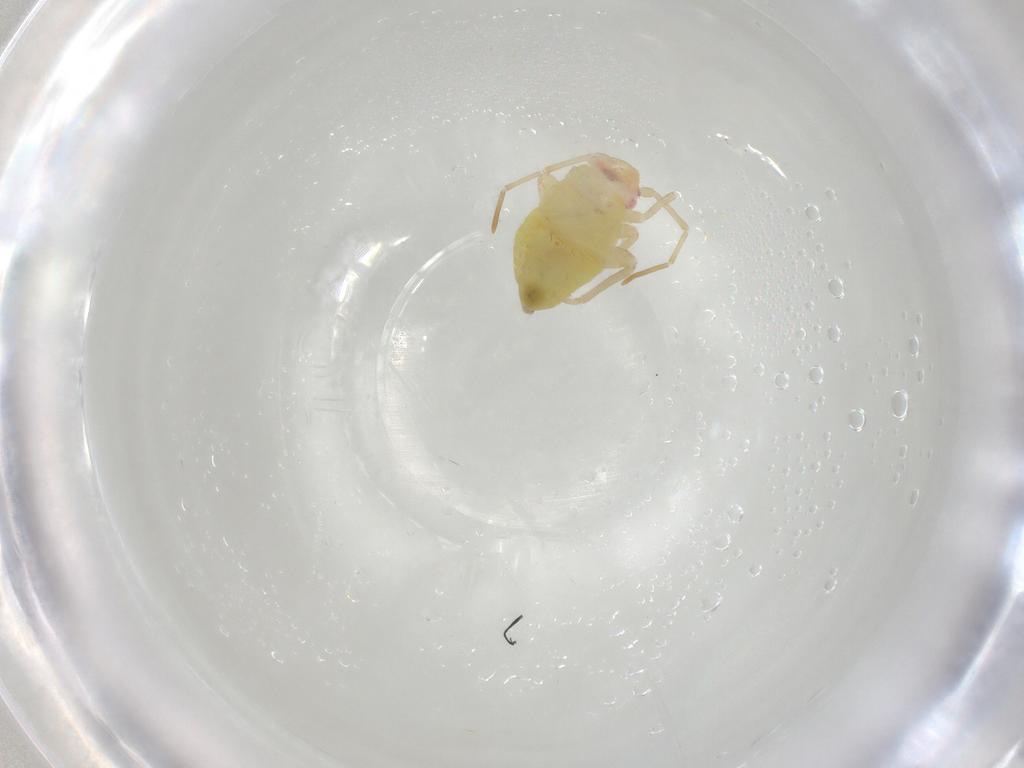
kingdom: Animalia
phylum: Arthropoda
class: Insecta
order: Hemiptera
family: Miridae
